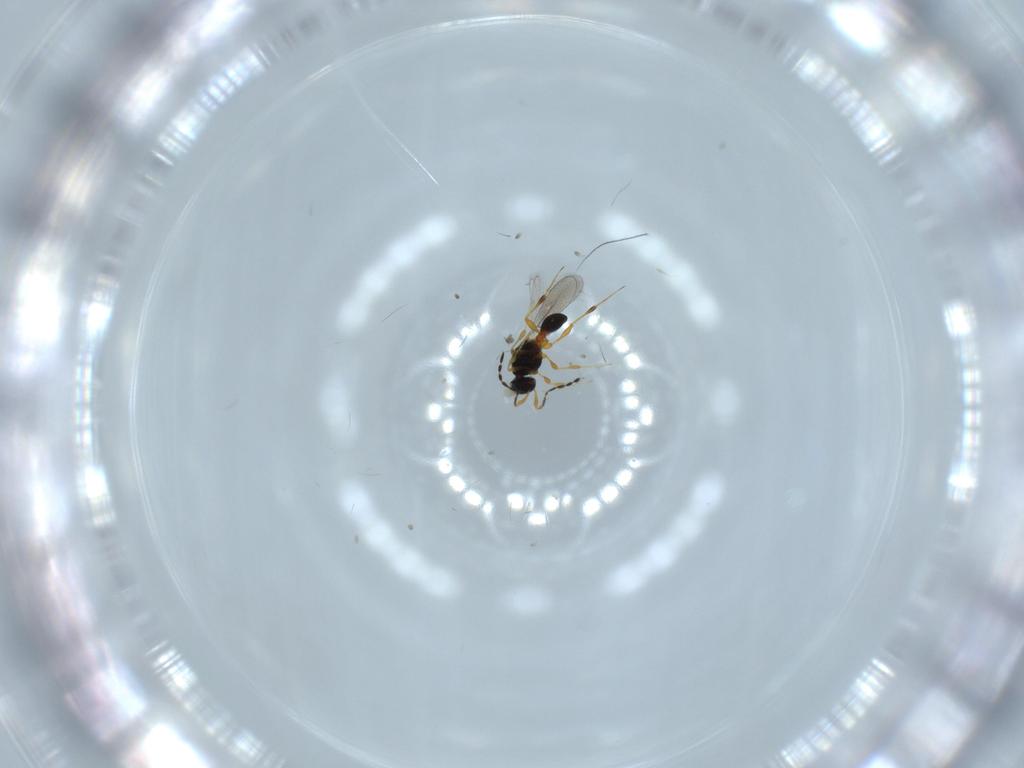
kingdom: Animalia
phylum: Arthropoda
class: Insecta
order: Hymenoptera
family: Platygastridae
